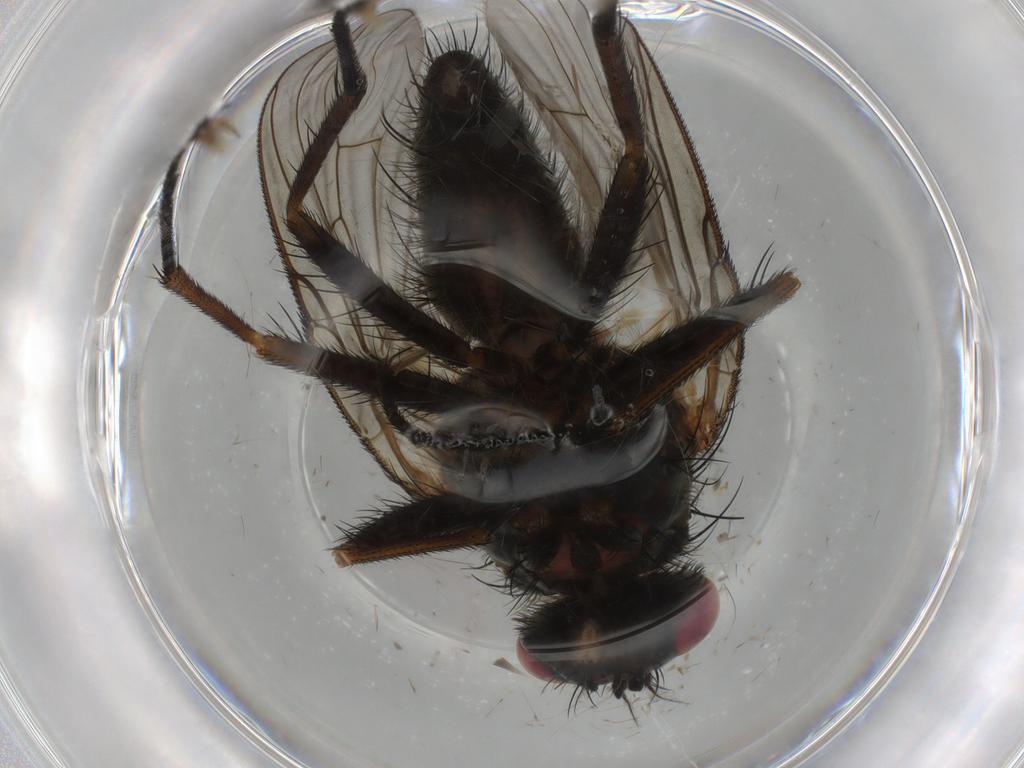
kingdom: Animalia
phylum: Arthropoda
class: Insecta
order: Diptera
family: Muscidae
